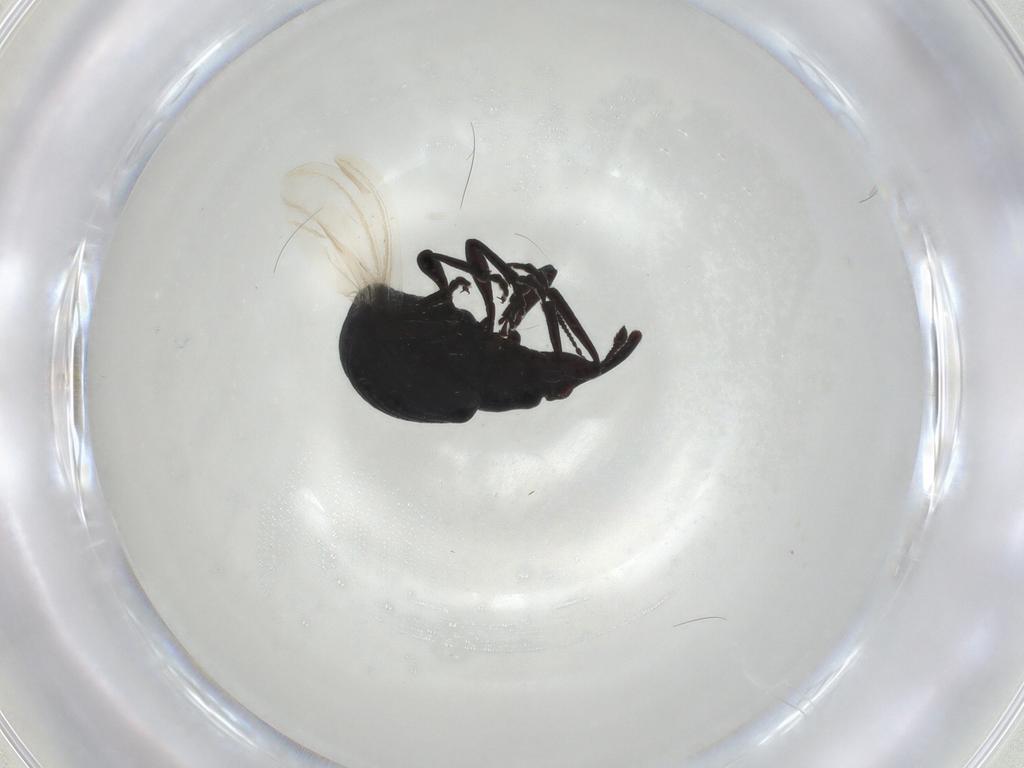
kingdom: Animalia
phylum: Arthropoda
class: Insecta
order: Coleoptera
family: Brentidae
